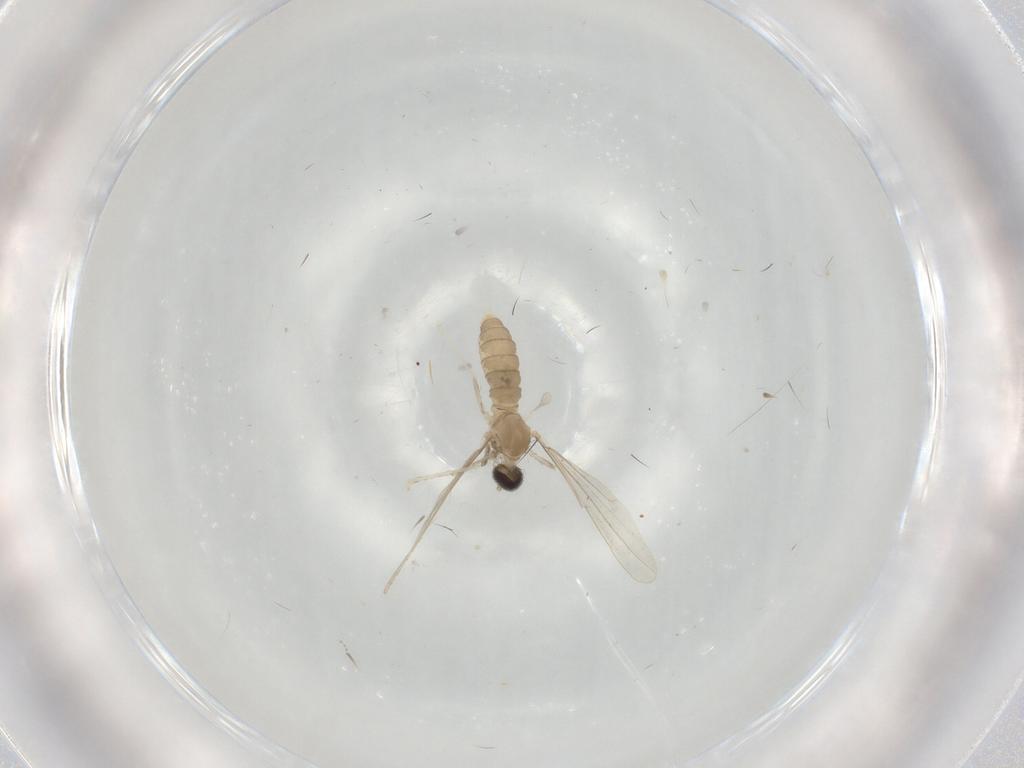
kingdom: Animalia
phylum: Arthropoda
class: Insecta
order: Diptera
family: Cecidomyiidae
